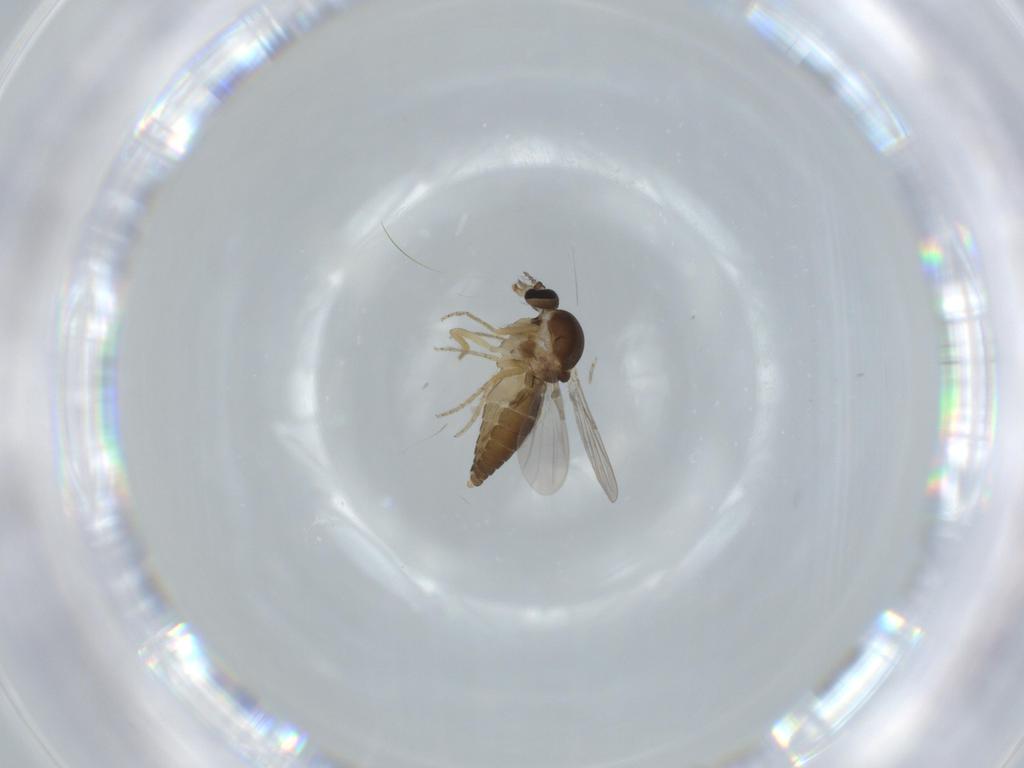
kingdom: Animalia
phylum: Arthropoda
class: Insecta
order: Diptera
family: Ceratopogonidae
